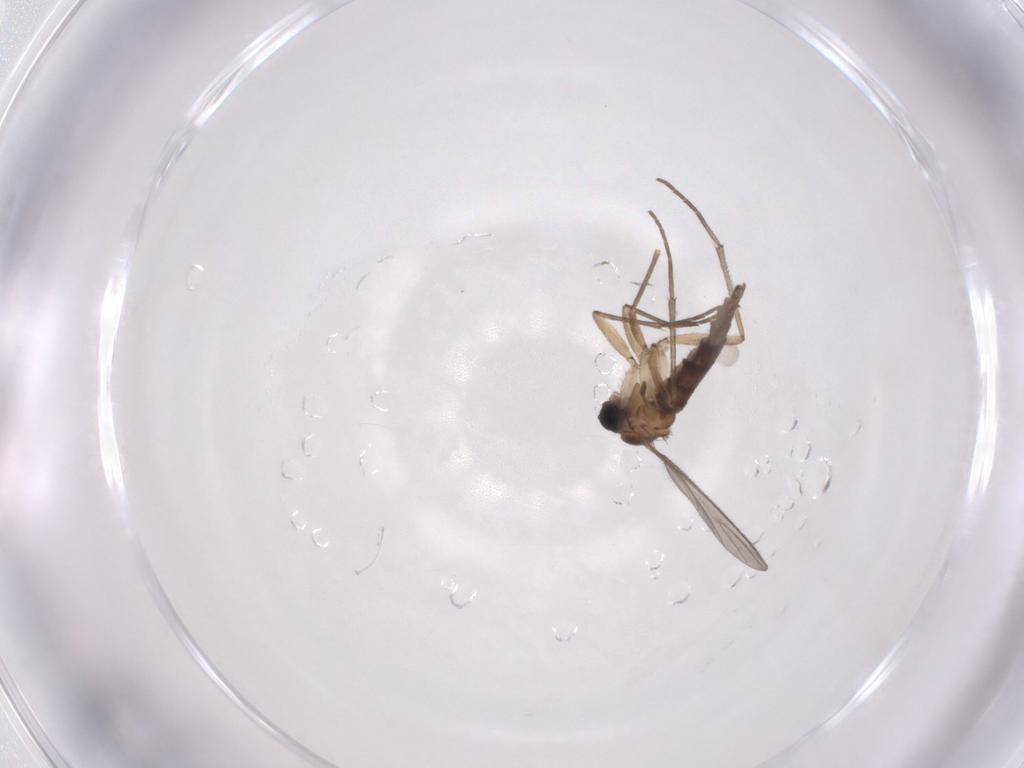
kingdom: Animalia
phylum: Arthropoda
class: Insecta
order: Diptera
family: Sciaridae
